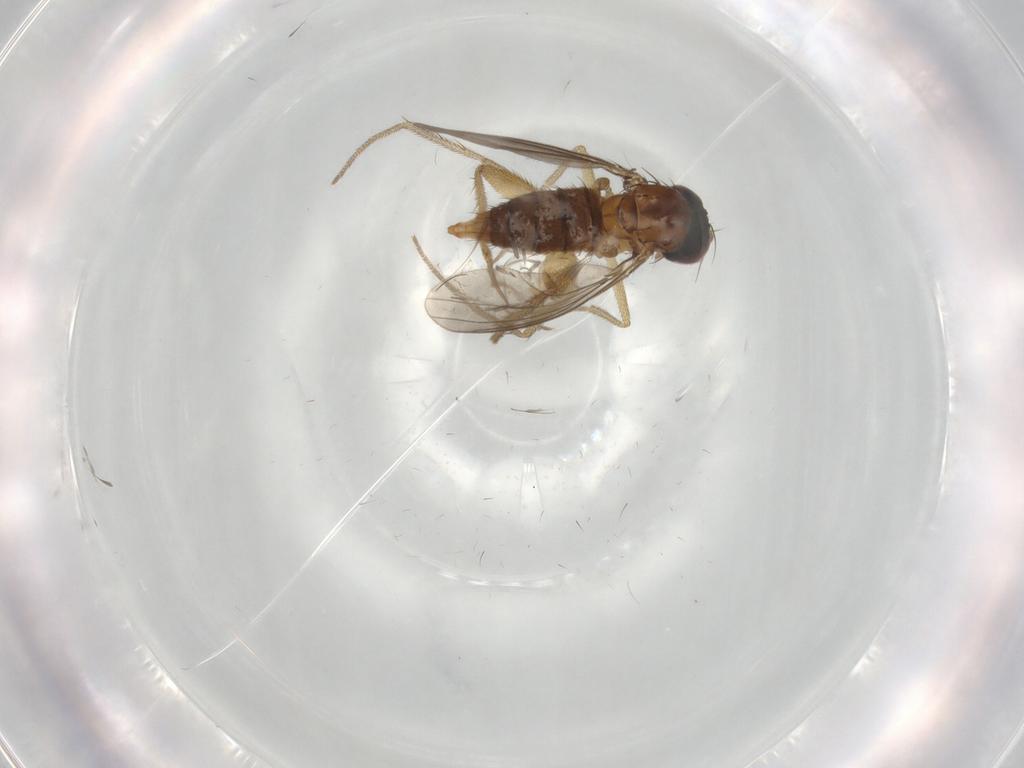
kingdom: Animalia
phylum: Arthropoda
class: Insecta
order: Diptera
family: Dolichopodidae
